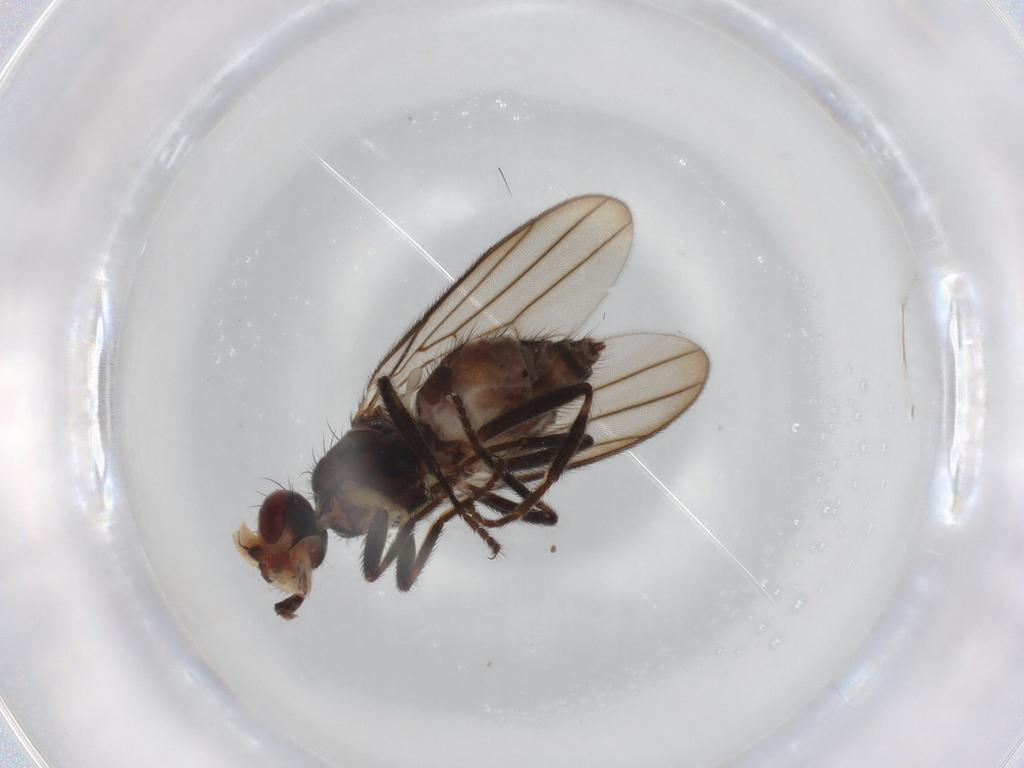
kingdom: Animalia
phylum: Arthropoda
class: Insecta
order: Diptera
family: Chloropidae
